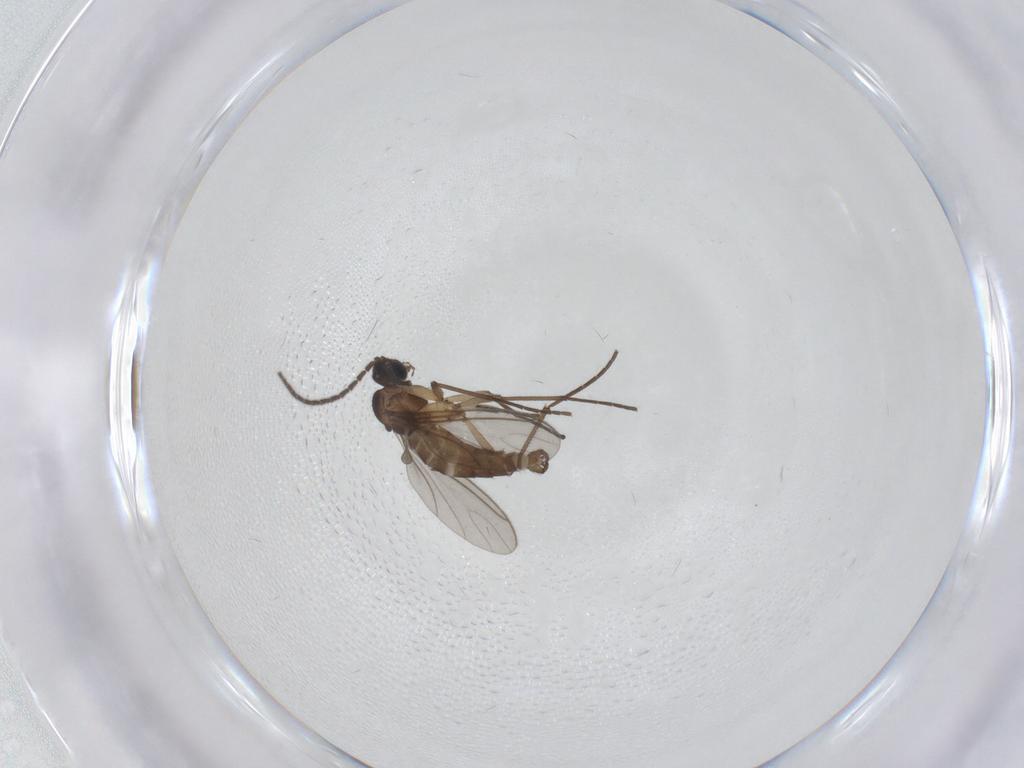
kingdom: Animalia
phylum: Arthropoda
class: Insecta
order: Diptera
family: Sciaridae
